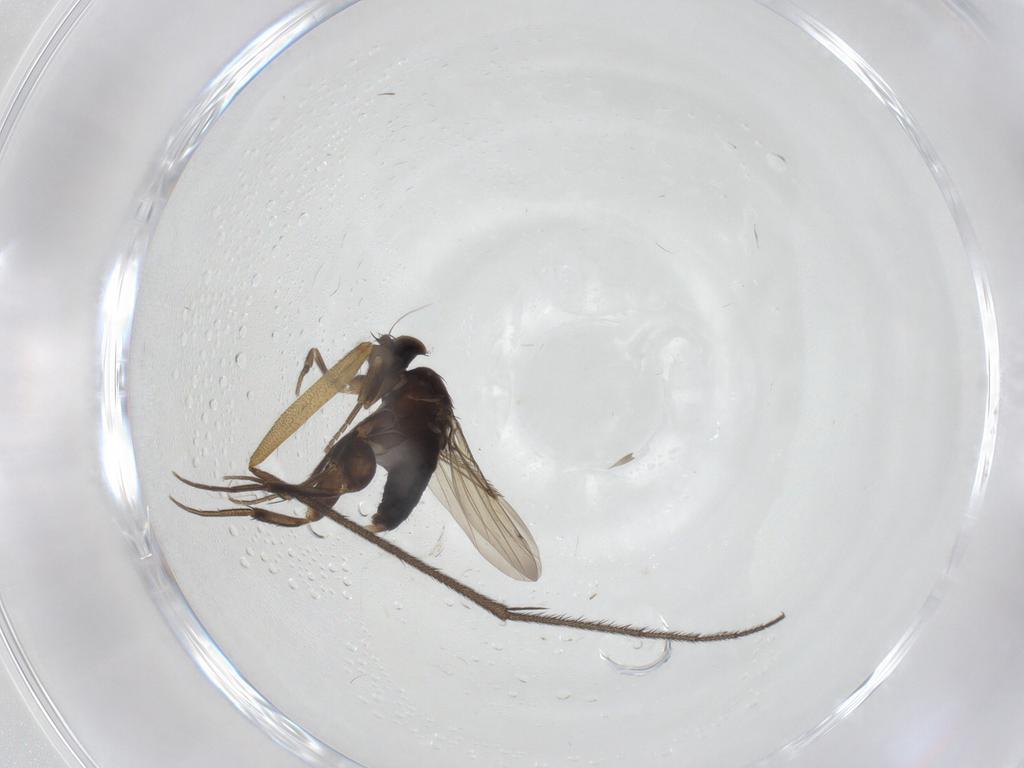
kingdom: Animalia
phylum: Arthropoda
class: Insecta
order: Diptera
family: Phoridae
